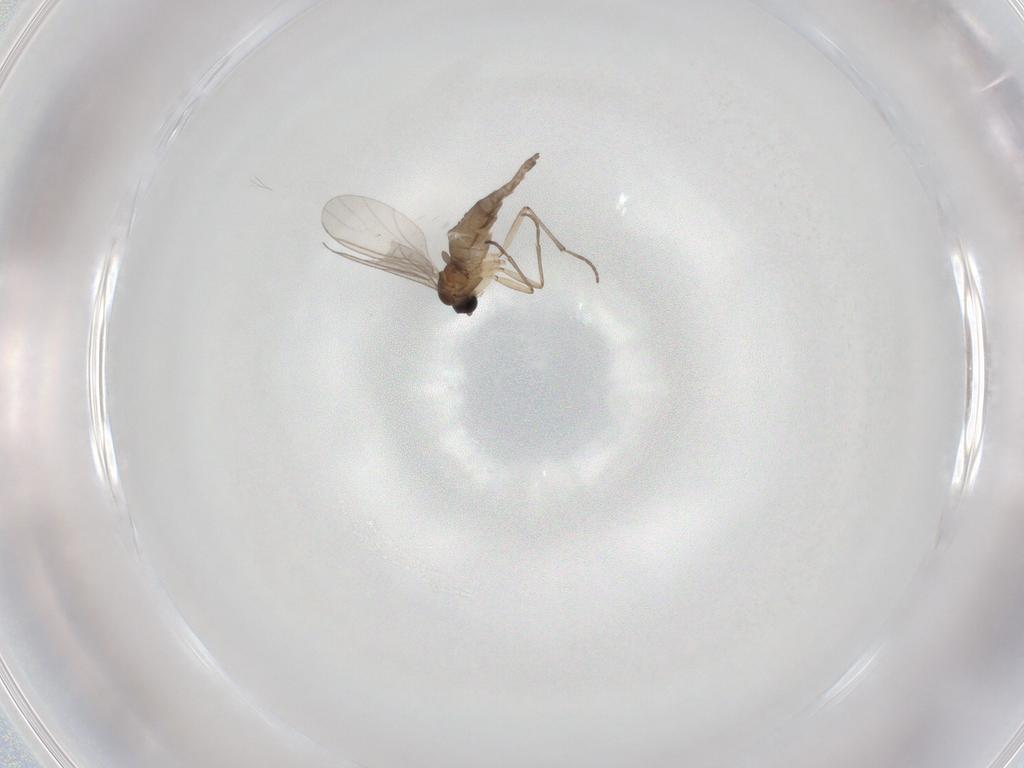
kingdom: Animalia
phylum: Arthropoda
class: Insecta
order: Diptera
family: Sciaridae
